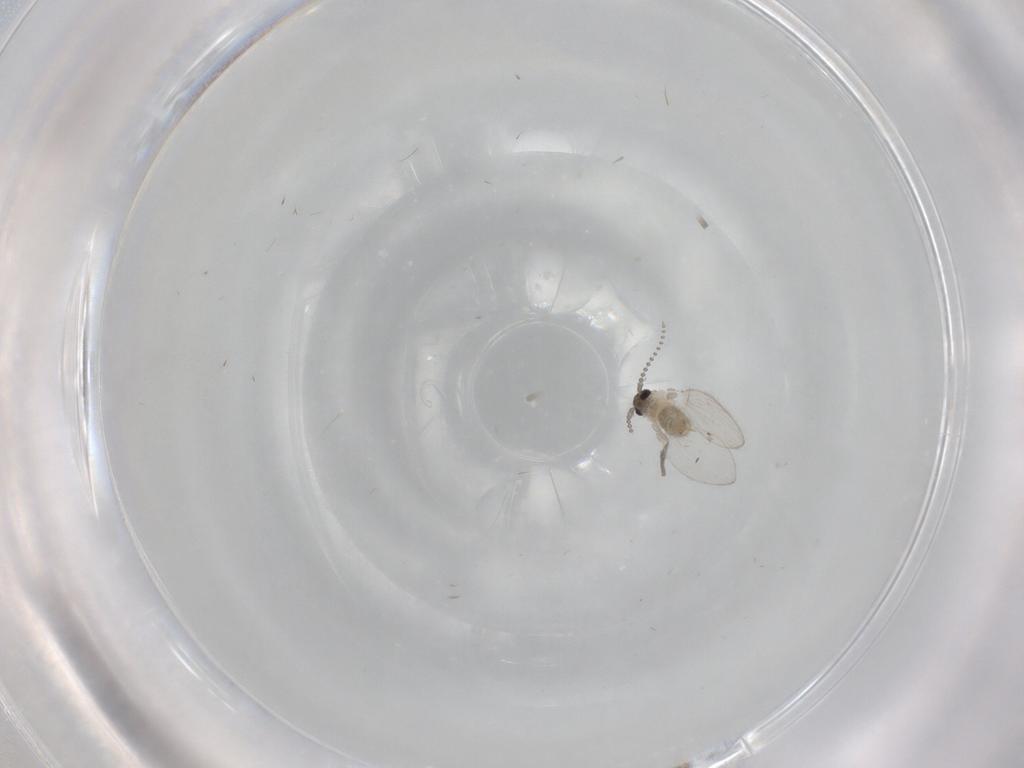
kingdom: Animalia
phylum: Arthropoda
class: Insecta
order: Diptera
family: Psychodidae
